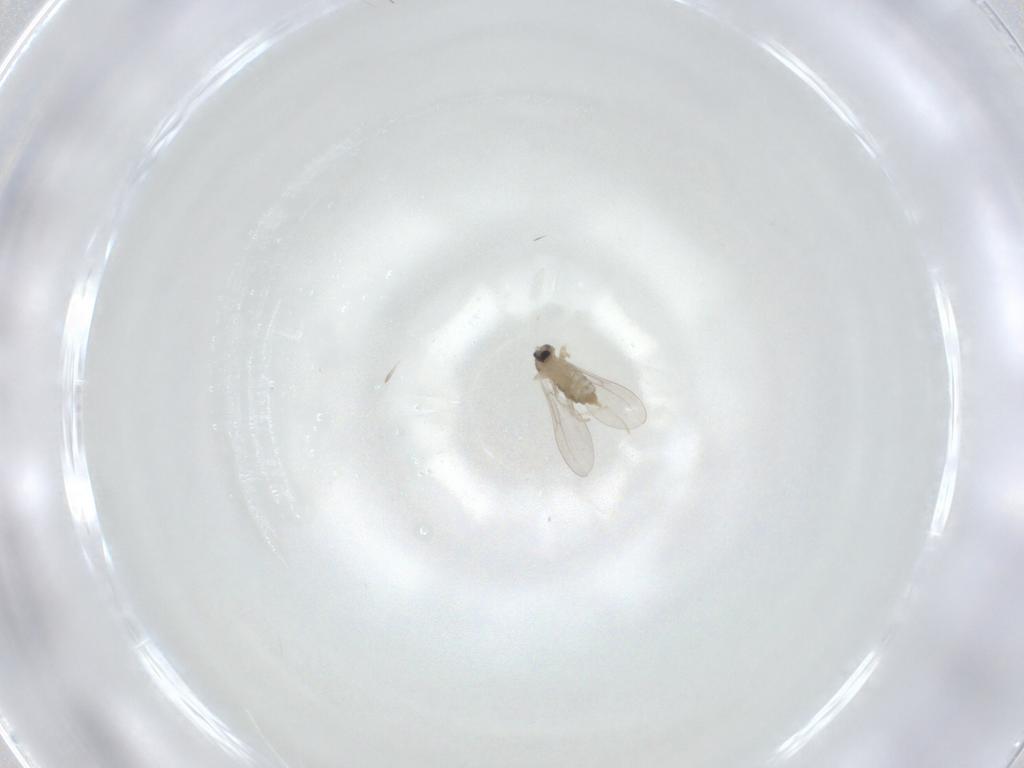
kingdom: Animalia
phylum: Arthropoda
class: Insecta
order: Diptera
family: Cecidomyiidae
